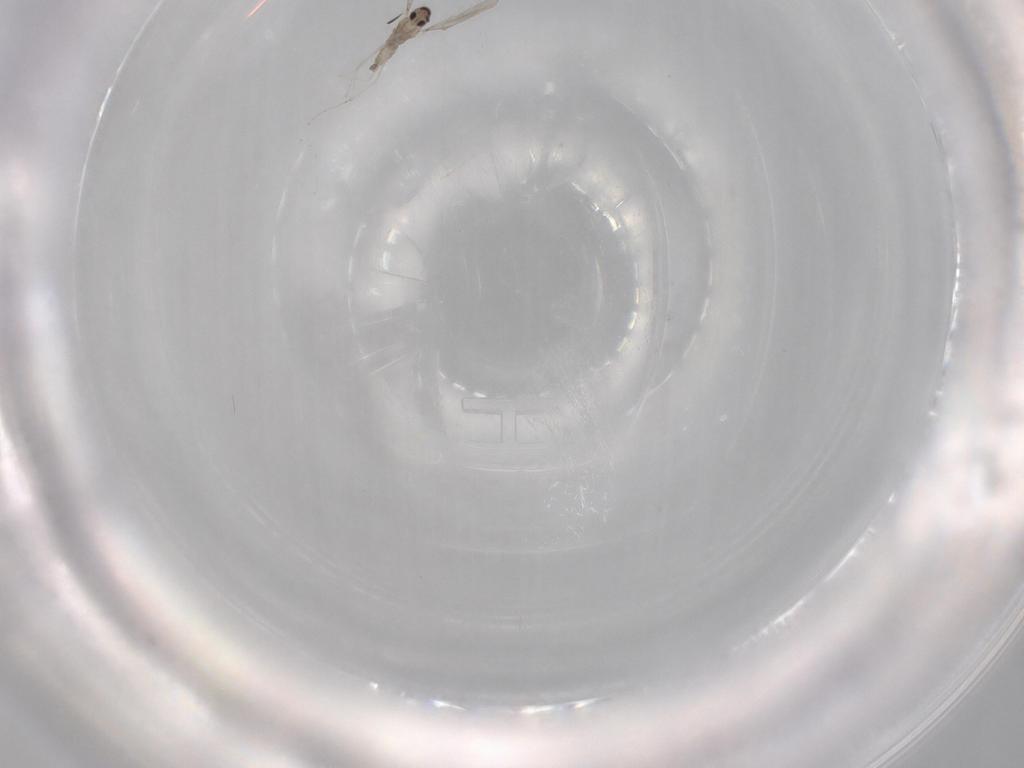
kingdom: Animalia
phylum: Arthropoda
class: Insecta
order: Diptera
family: Cecidomyiidae
